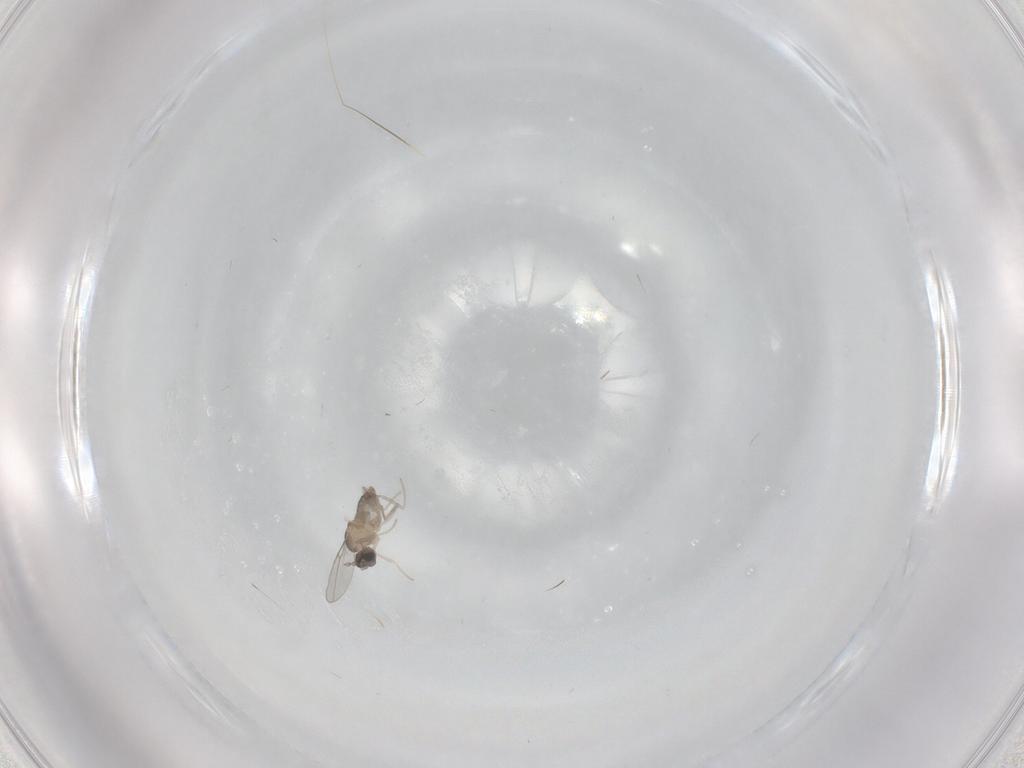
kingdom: Animalia
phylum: Arthropoda
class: Insecta
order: Diptera
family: Cecidomyiidae
